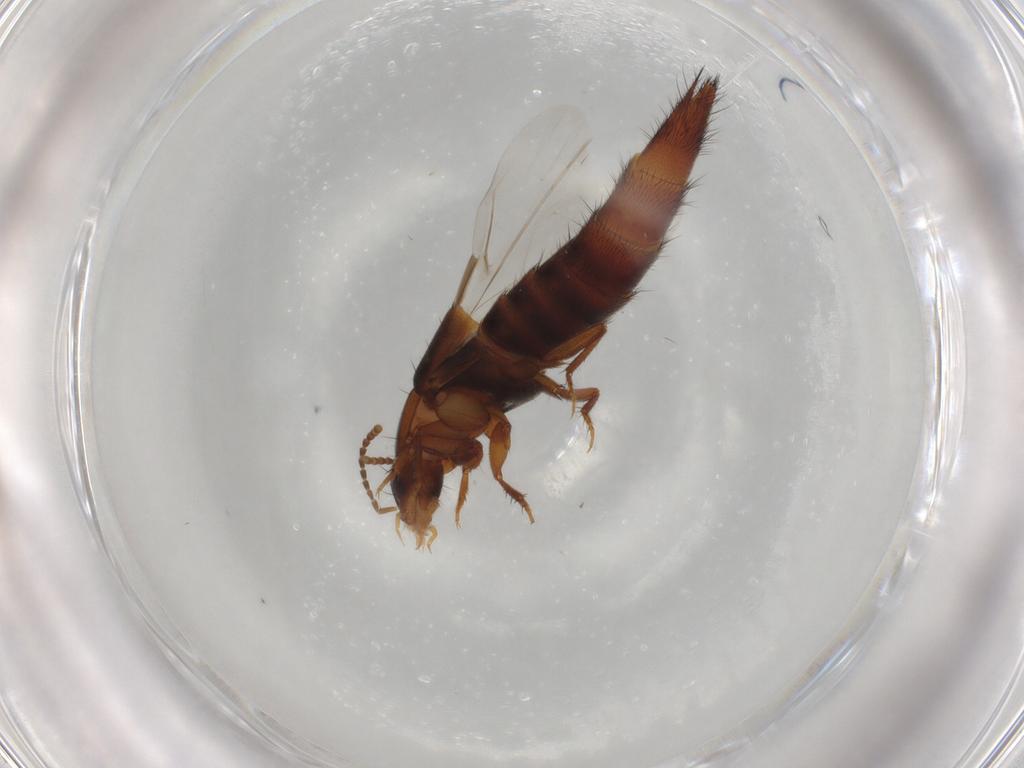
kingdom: Animalia
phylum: Arthropoda
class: Insecta
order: Coleoptera
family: Staphylinidae
